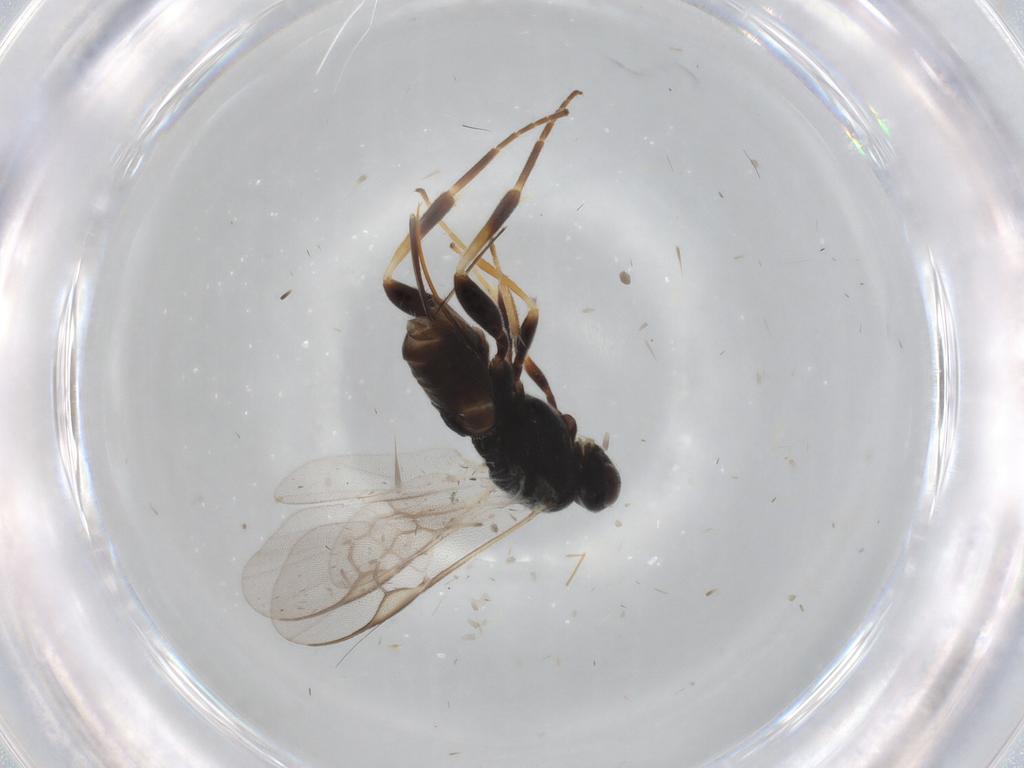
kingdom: Animalia
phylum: Arthropoda
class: Insecta
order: Hymenoptera
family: Braconidae
